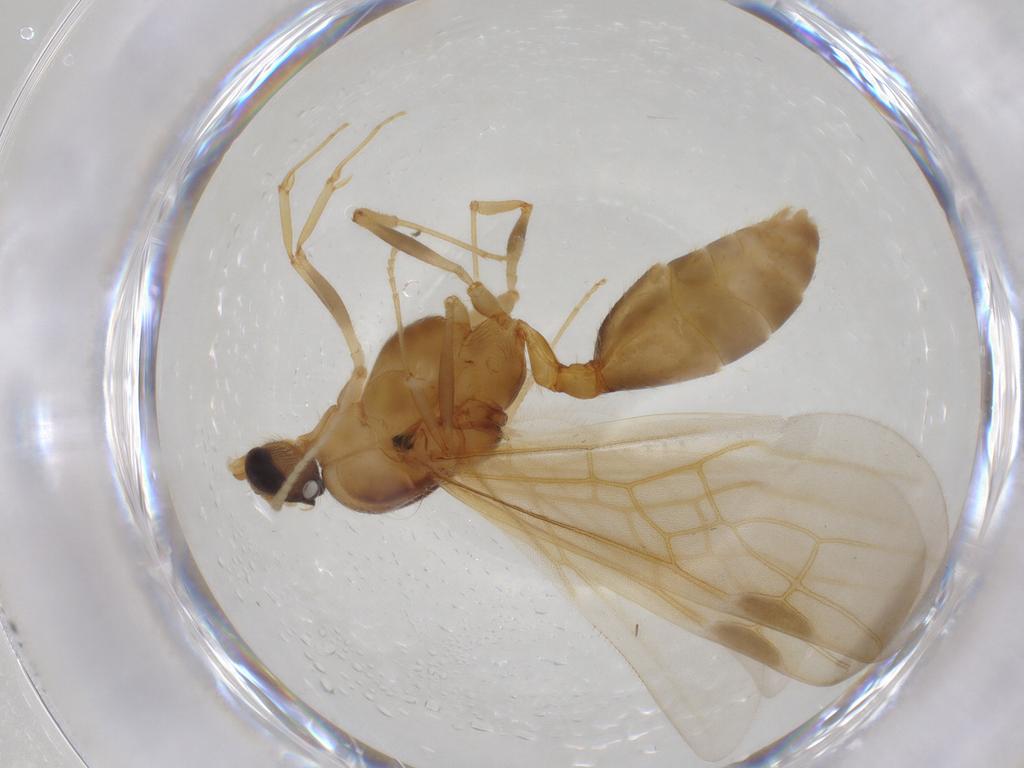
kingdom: Animalia
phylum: Arthropoda
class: Insecta
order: Hymenoptera
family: Formicidae
